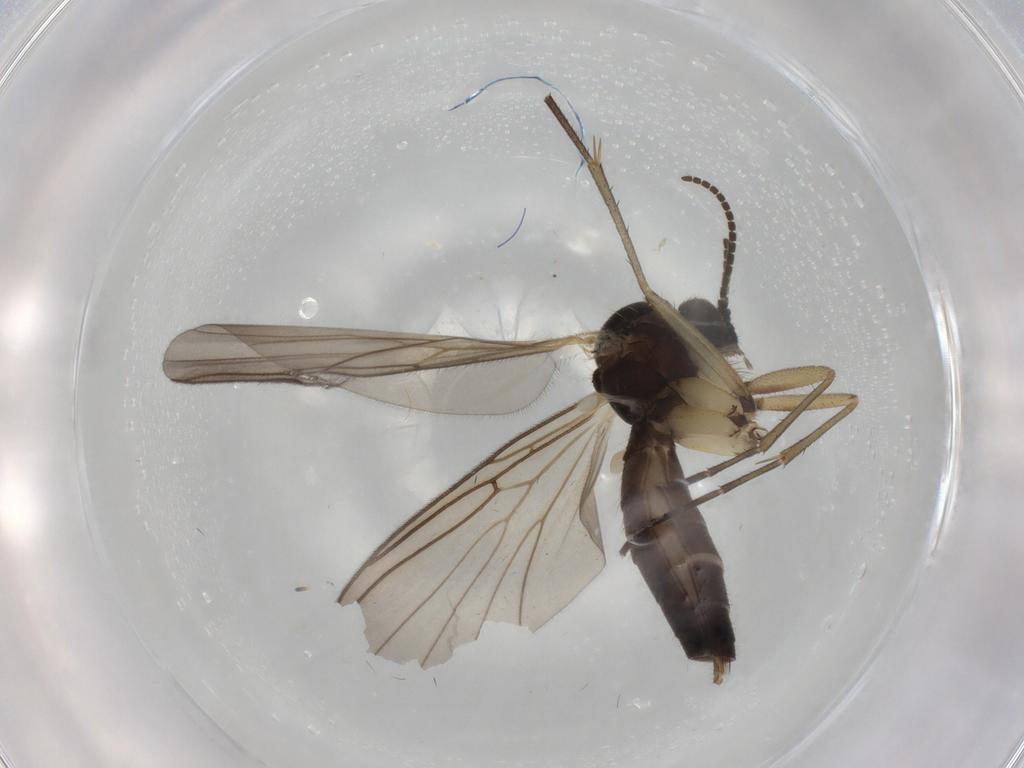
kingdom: Animalia
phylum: Arthropoda
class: Insecta
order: Diptera
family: Mycetophilidae
